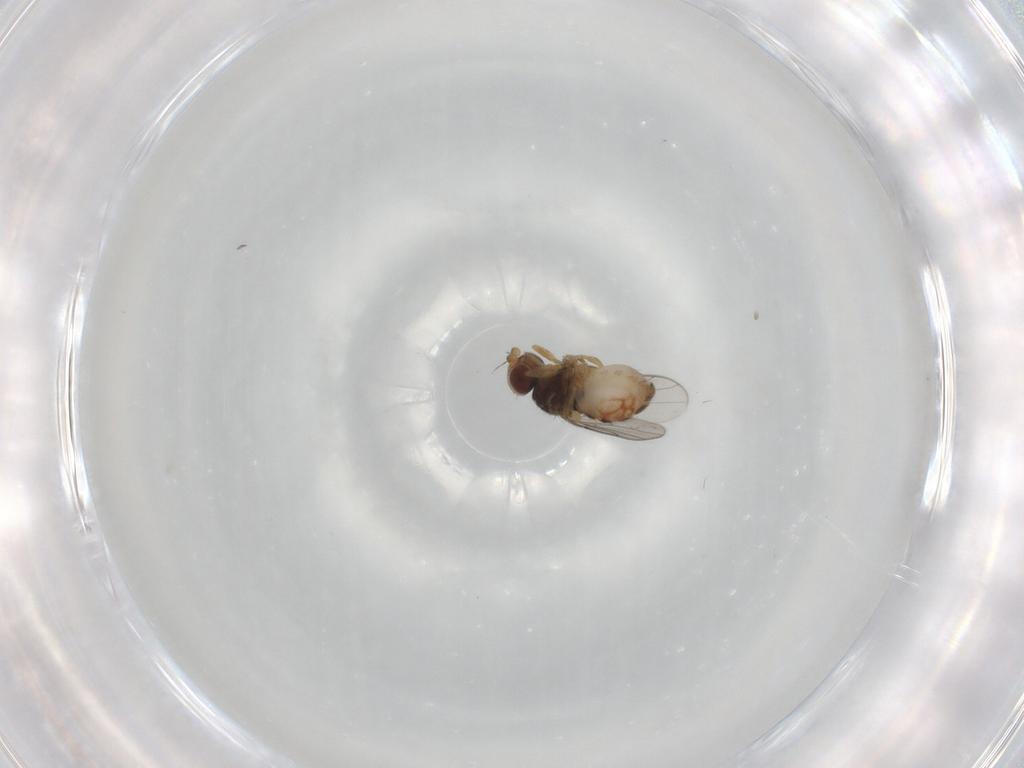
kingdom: Animalia
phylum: Arthropoda
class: Insecta
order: Diptera
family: Chloropidae
